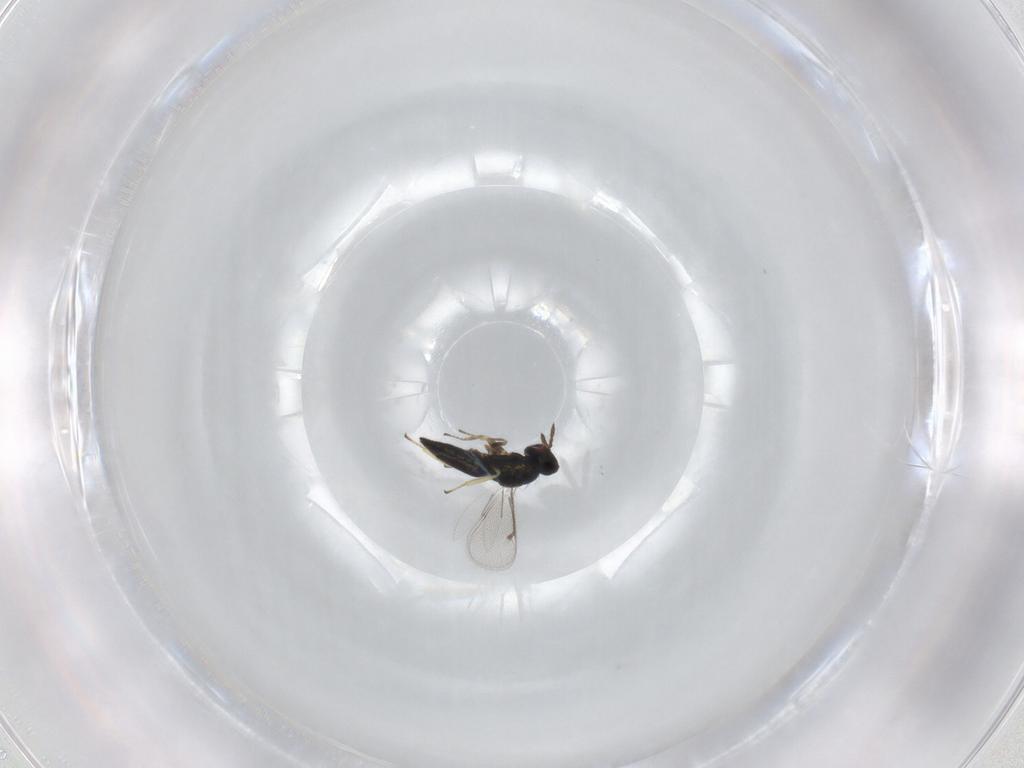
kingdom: Animalia
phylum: Arthropoda
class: Insecta
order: Hymenoptera
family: Eulophidae
